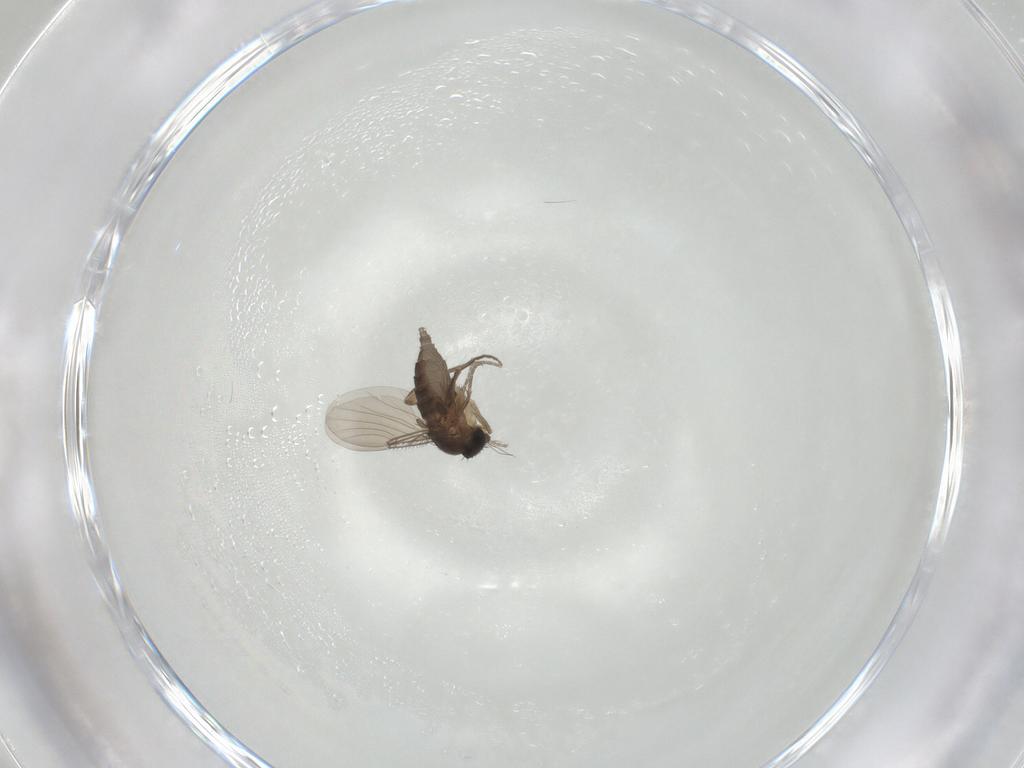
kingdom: Animalia
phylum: Arthropoda
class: Insecta
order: Diptera
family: Phoridae
